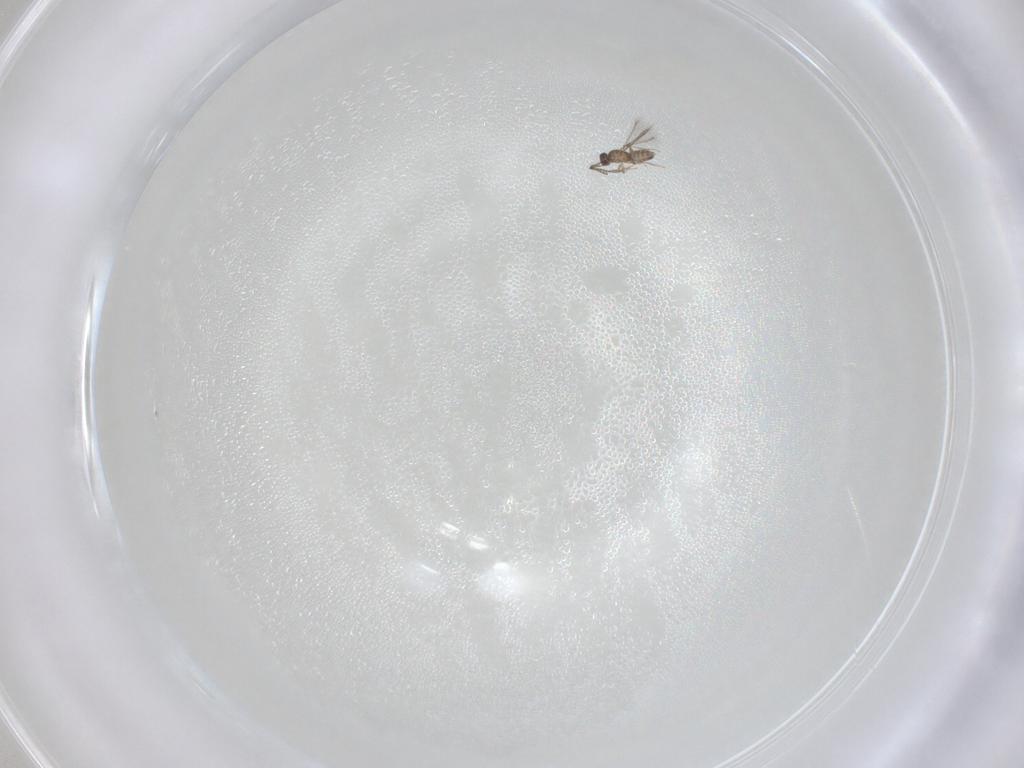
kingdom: Animalia
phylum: Arthropoda
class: Insecta
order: Hymenoptera
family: Mymaridae
